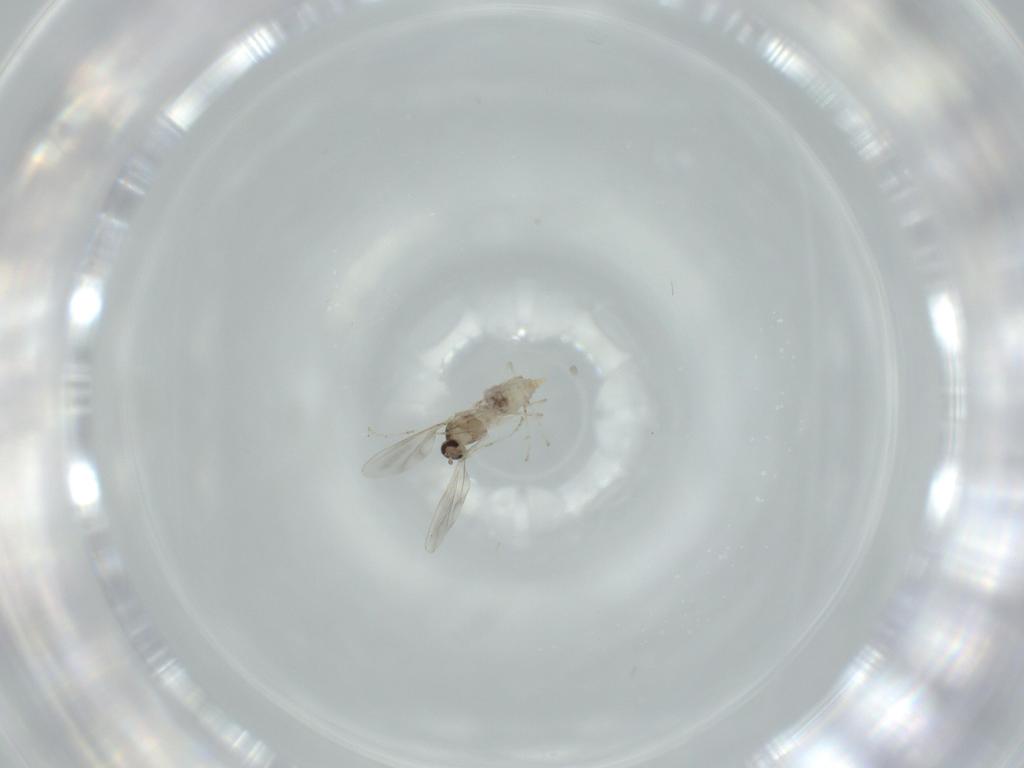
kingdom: Animalia
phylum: Arthropoda
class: Insecta
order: Diptera
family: Cecidomyiidae
